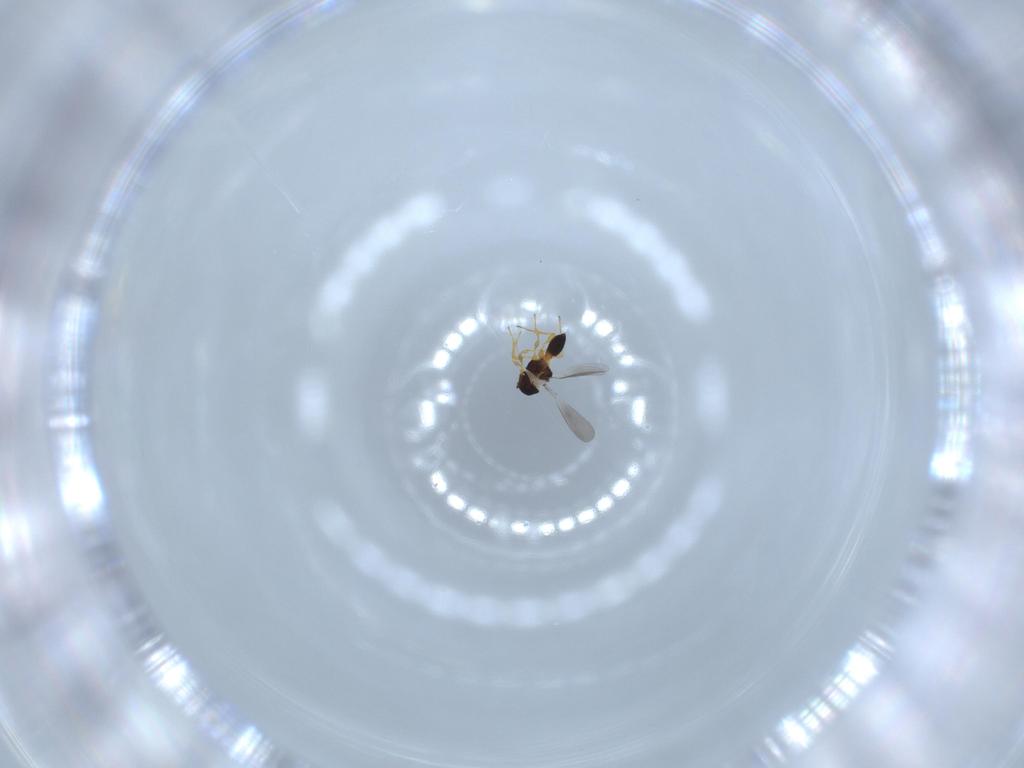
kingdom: Animalia
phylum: Arthropoda
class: Insecta
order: Hymenoptera
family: Platygastridae
